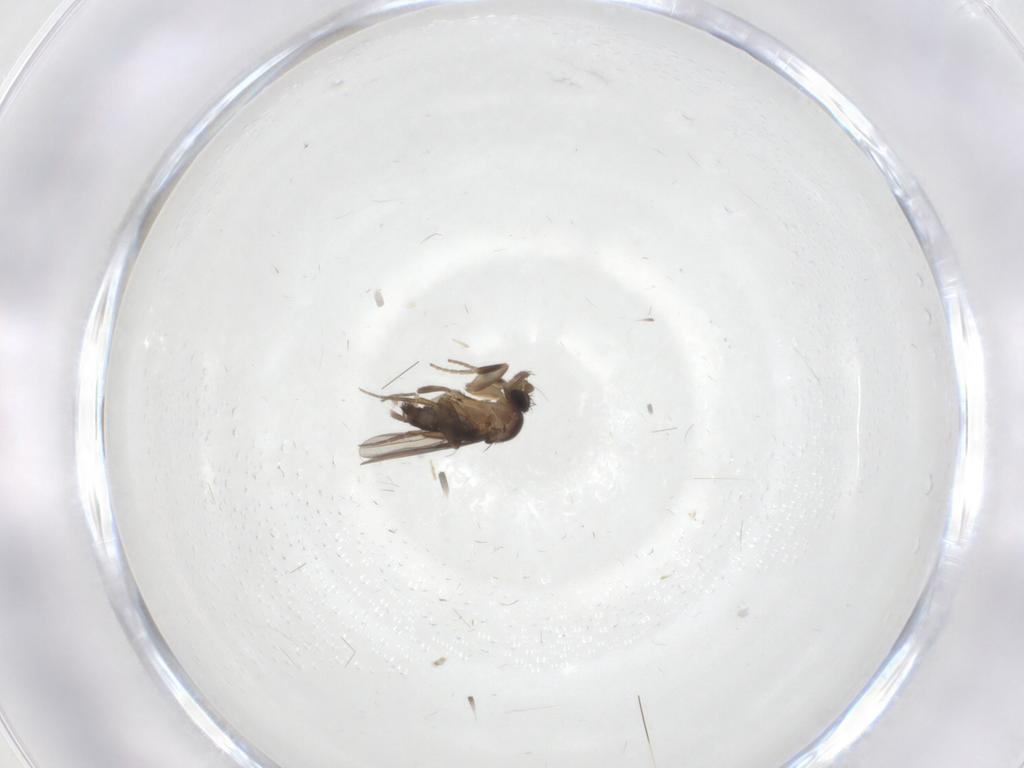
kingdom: Animalia
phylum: Arthropoda
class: Insecta
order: Diptera
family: Phoridae
